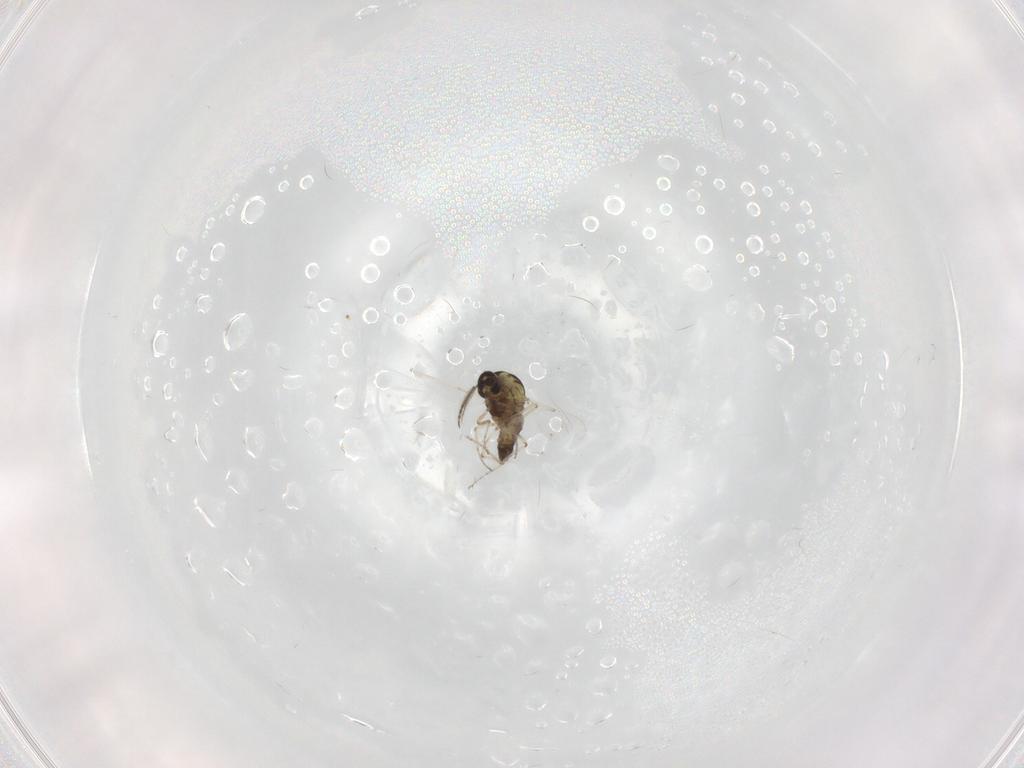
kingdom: Animalia
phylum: Arthropoda
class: Insecta
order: Diptera
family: Ceratopogonidae
